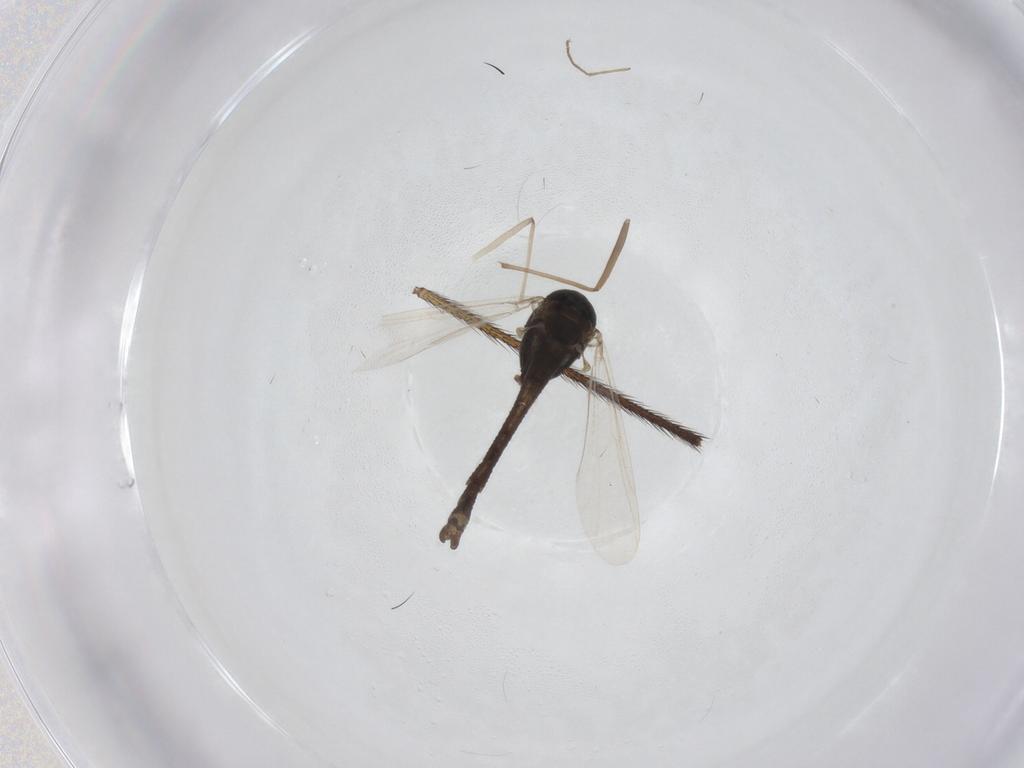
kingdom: Animalia
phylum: Arthropoda
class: Insecta
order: Diptera
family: Chironomidae
